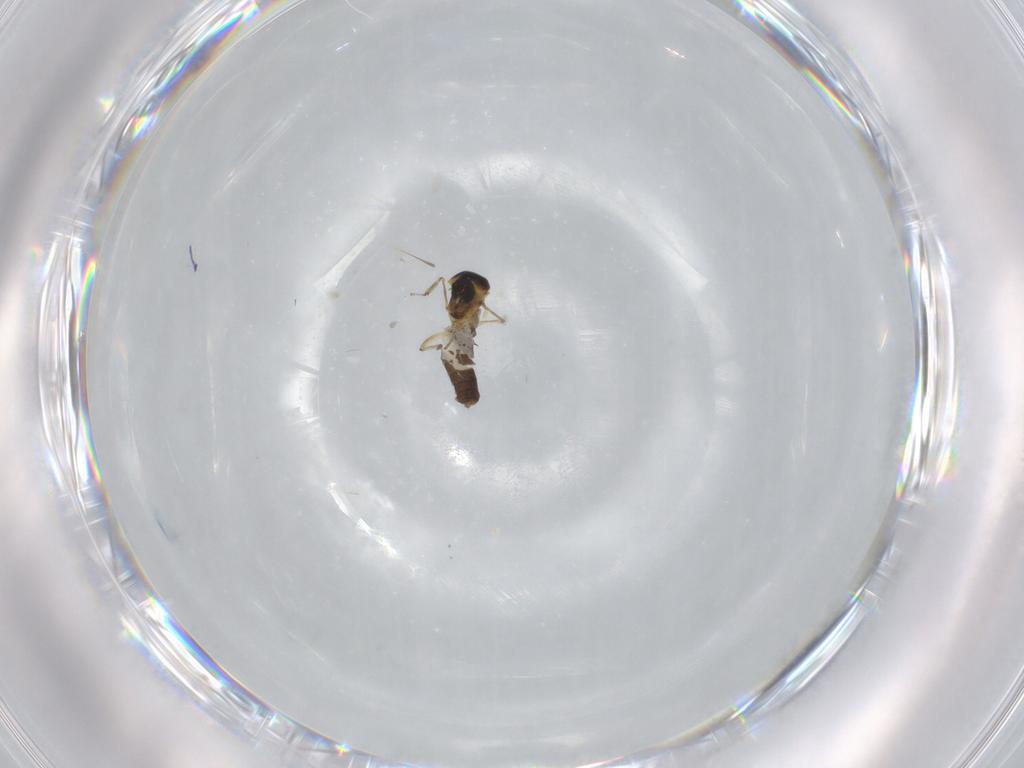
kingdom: Animalia
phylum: Arthropoda
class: Insecta
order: Diptera
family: Ceratopogonidae
